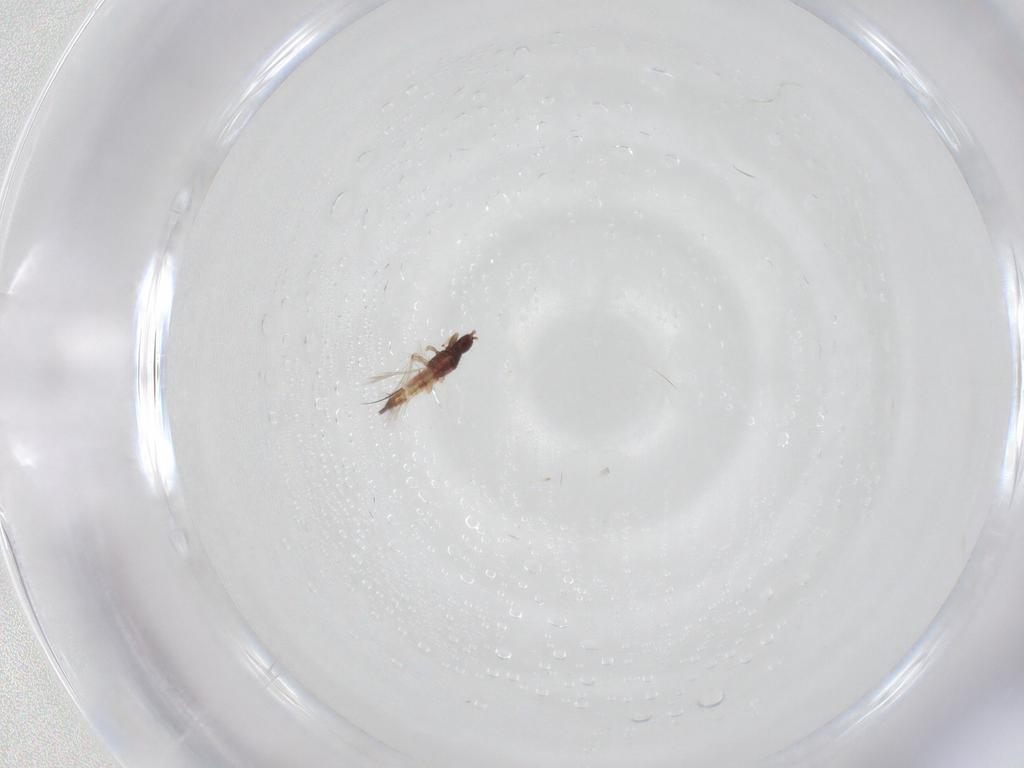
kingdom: Animalia
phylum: Arthropoda
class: Insecta
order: Thysanoptera
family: Phlaeothripidae
